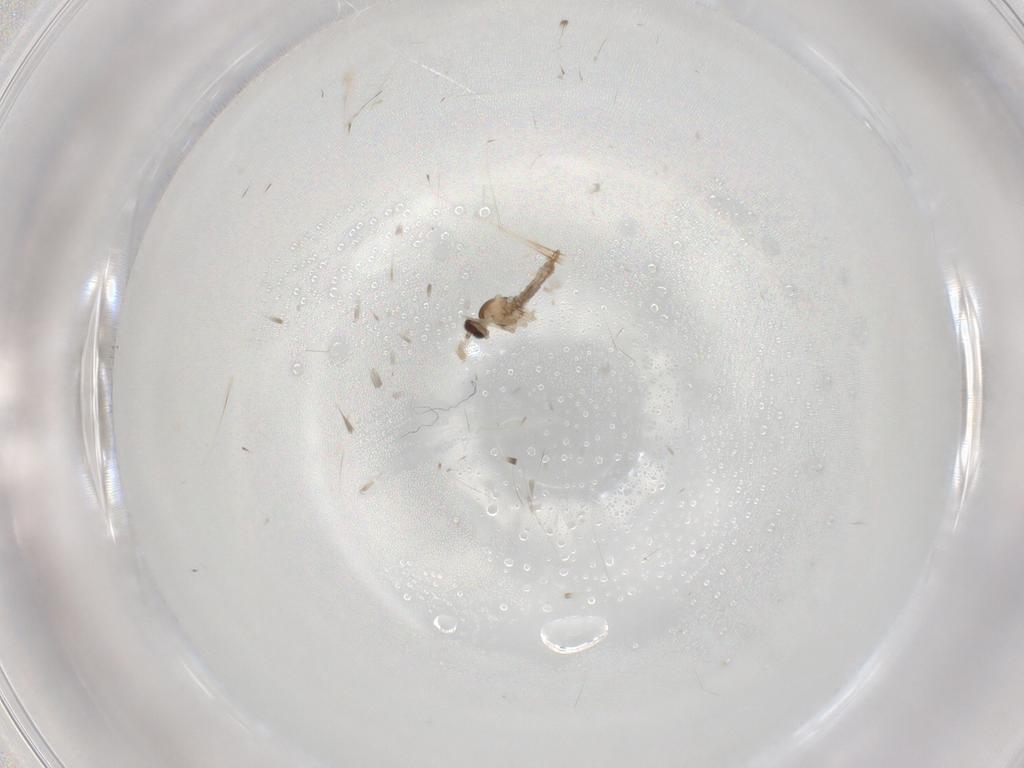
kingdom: Animalia
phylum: Arthropoda
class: Insecta
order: Diptera
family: Cecidomyiidae
